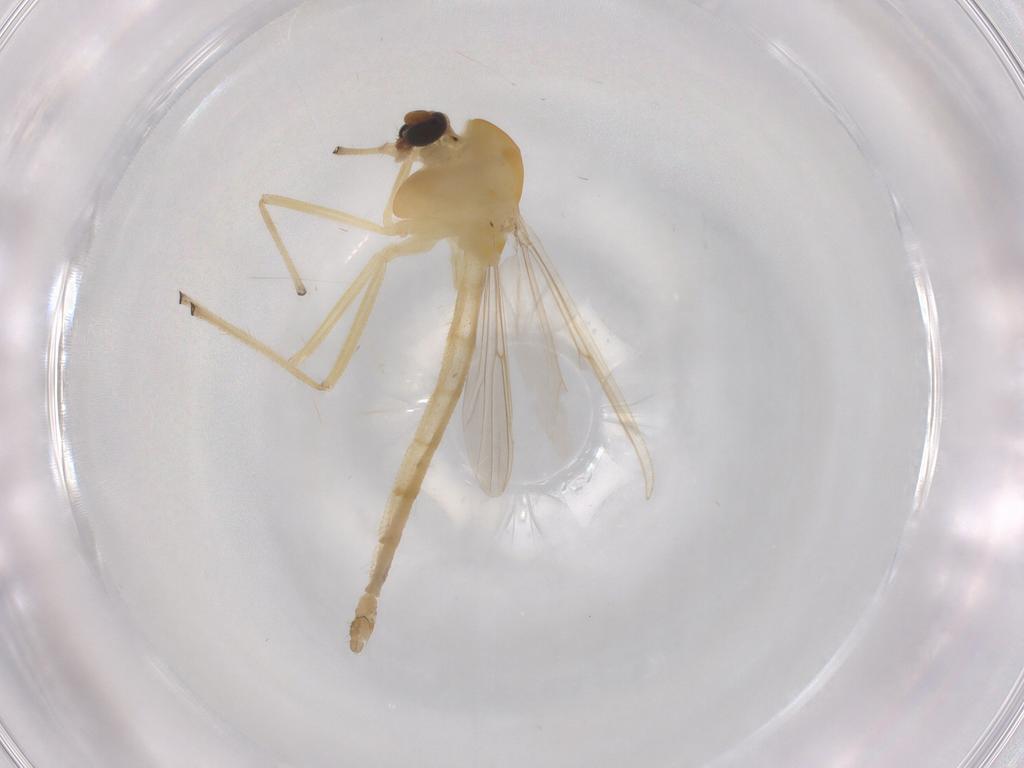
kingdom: Animalia
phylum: Arthropoda
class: Insecta
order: Diptera
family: Chironomidae
